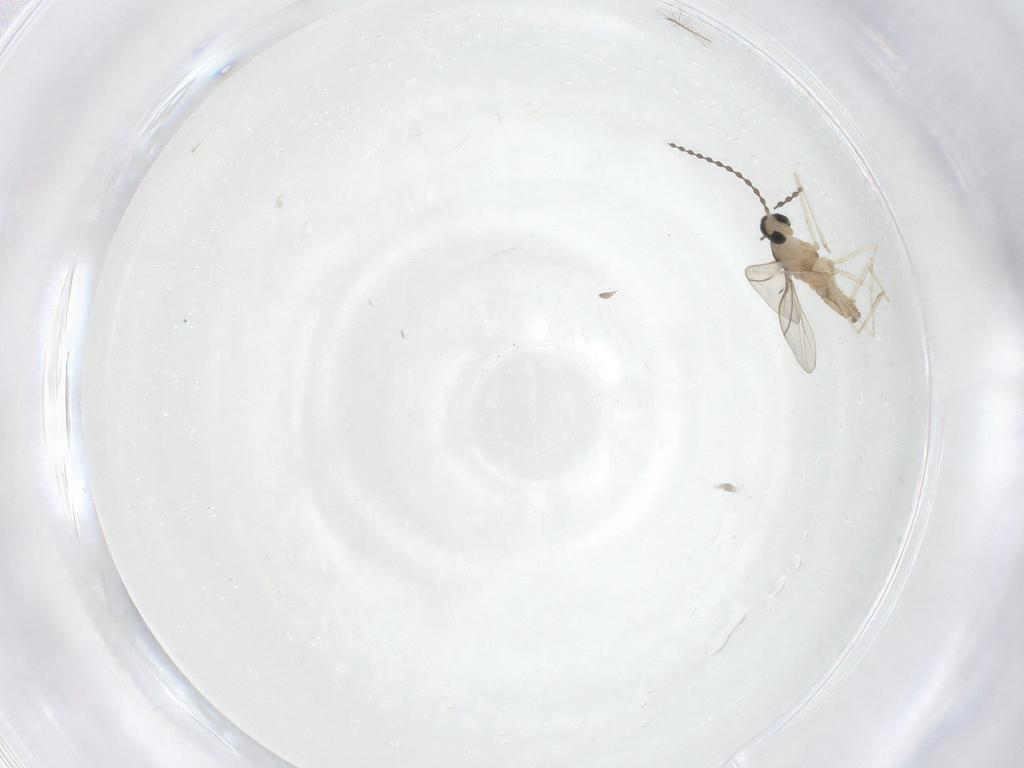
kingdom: Animalia
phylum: Arthropoda
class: Insecta
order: Diptera
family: Cecidomyiidae
